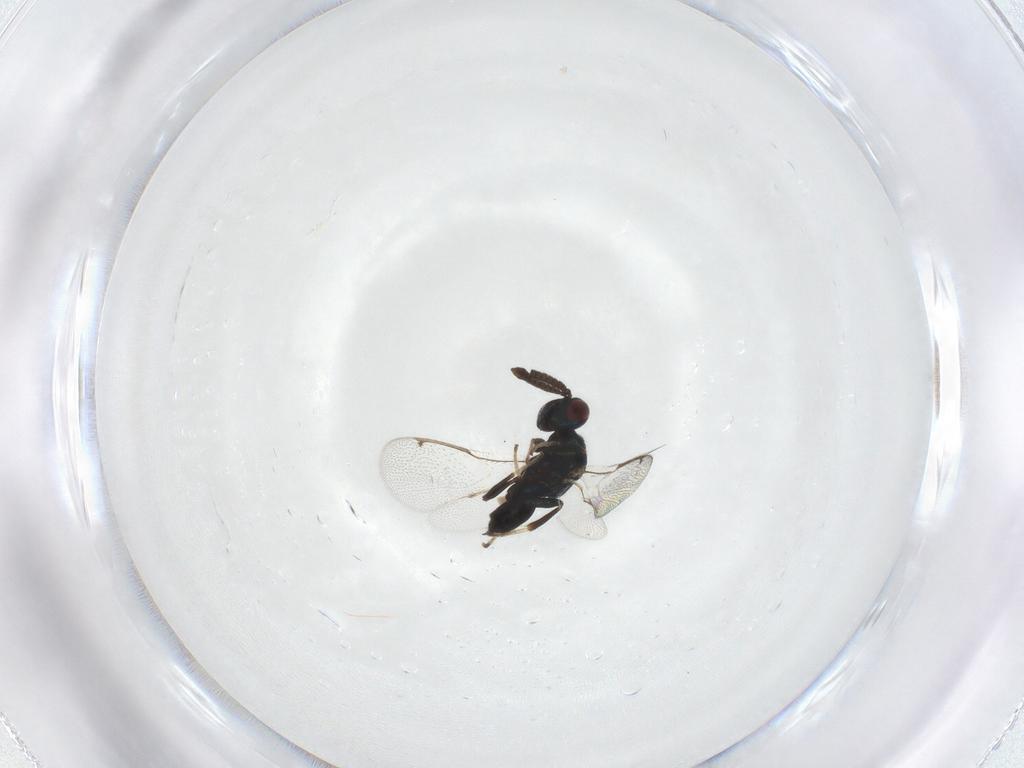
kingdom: Animalia
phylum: Arthropoda
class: Insecta
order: Hymenoptera
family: Torymidae
